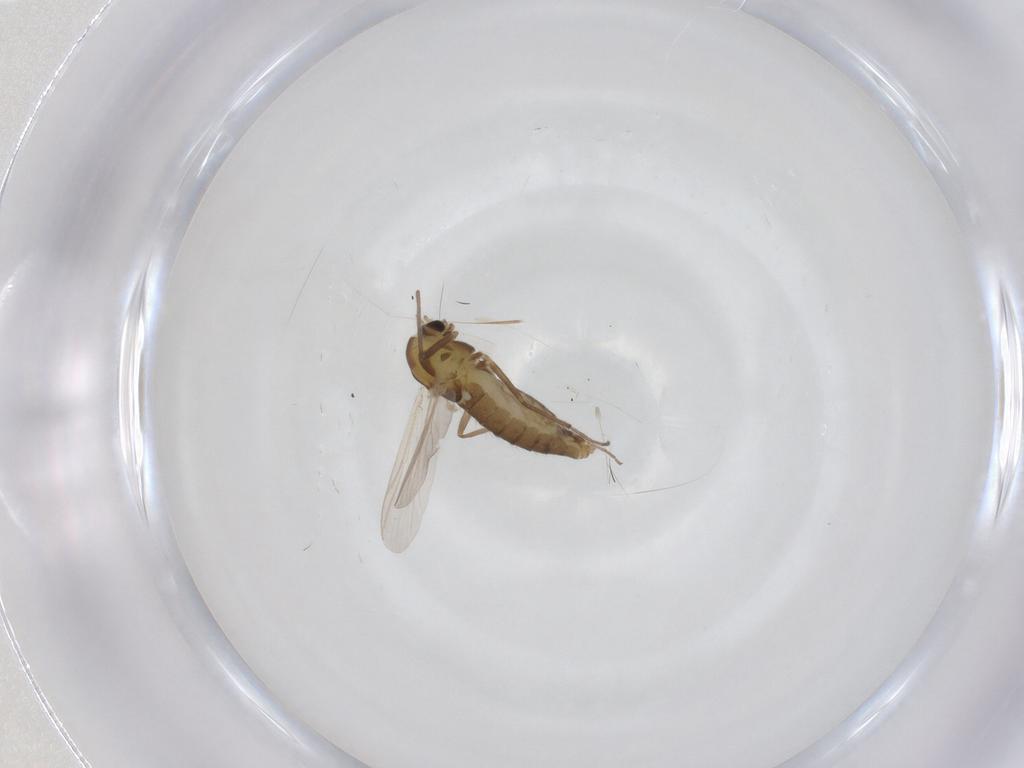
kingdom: Animalia
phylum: Arthropoda
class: Insecta
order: Diptera
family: Chironomidae
